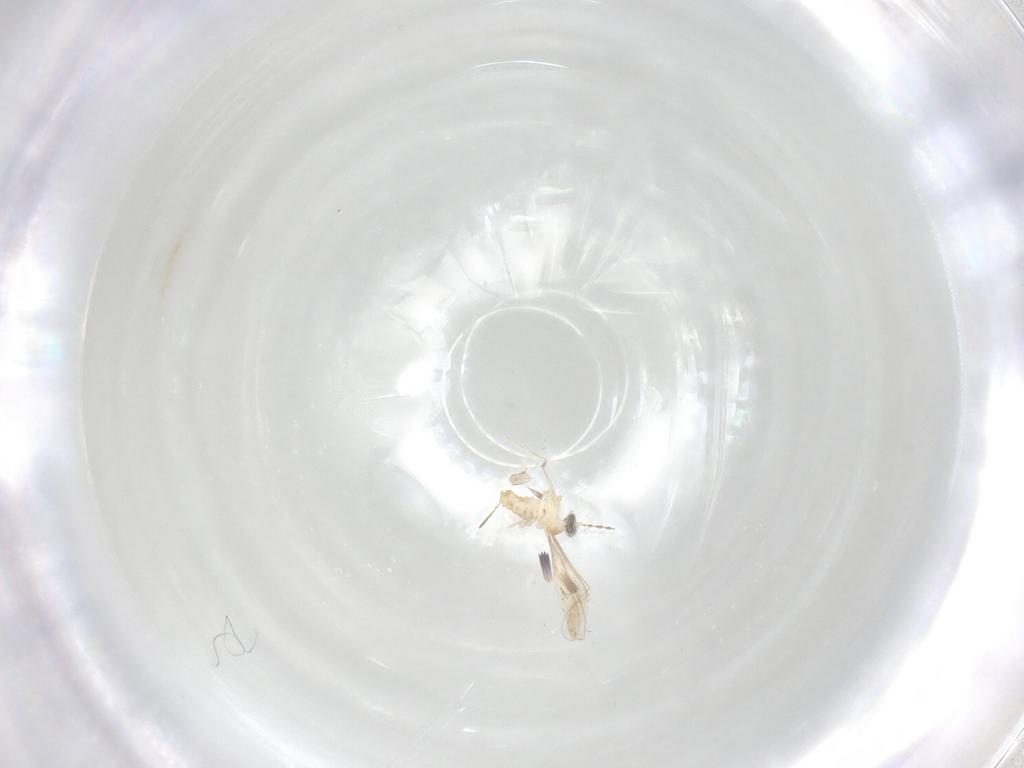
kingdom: Animalia
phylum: Arthropoda
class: Insecta
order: Diptera
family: Cecidomyiidae
